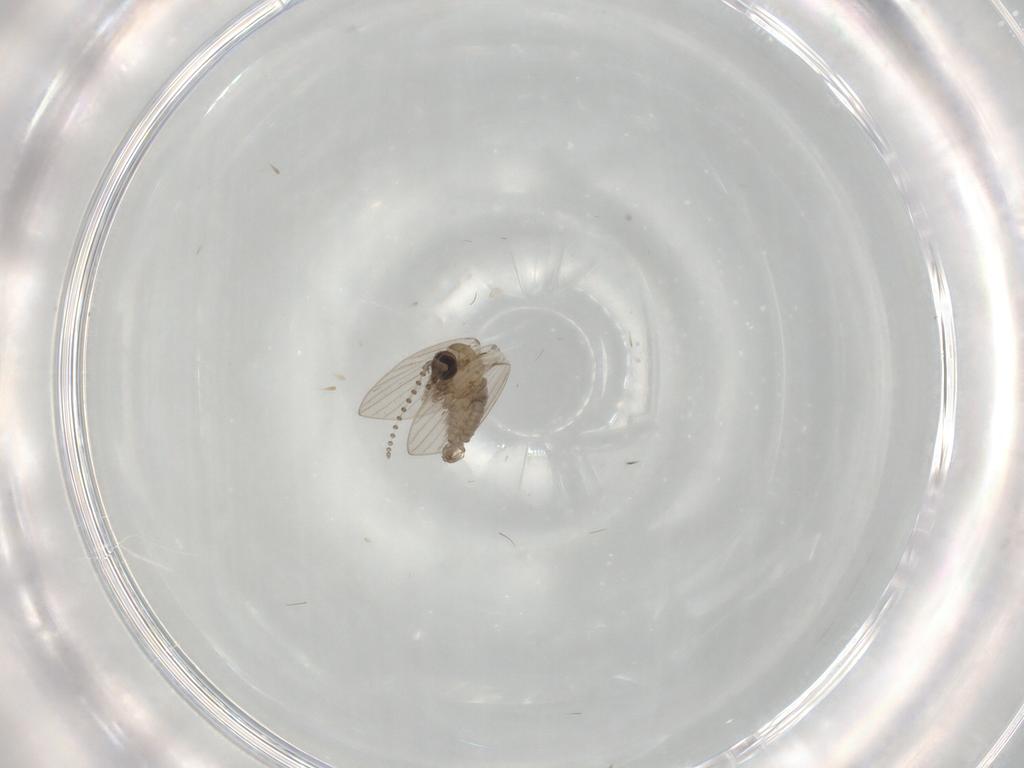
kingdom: Animalia
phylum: Arthropoda
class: Insecta
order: Diptera
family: Psychodidae
